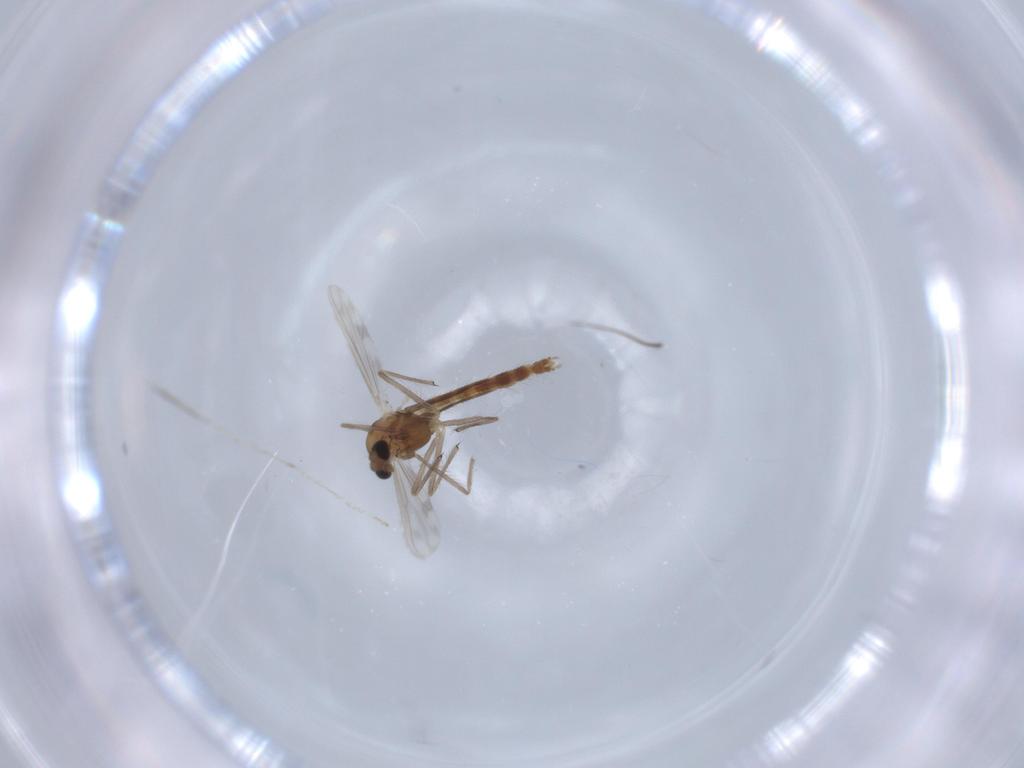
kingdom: Animalia
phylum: Arthropoda
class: Insecta
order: Diptera
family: Chironomidae
